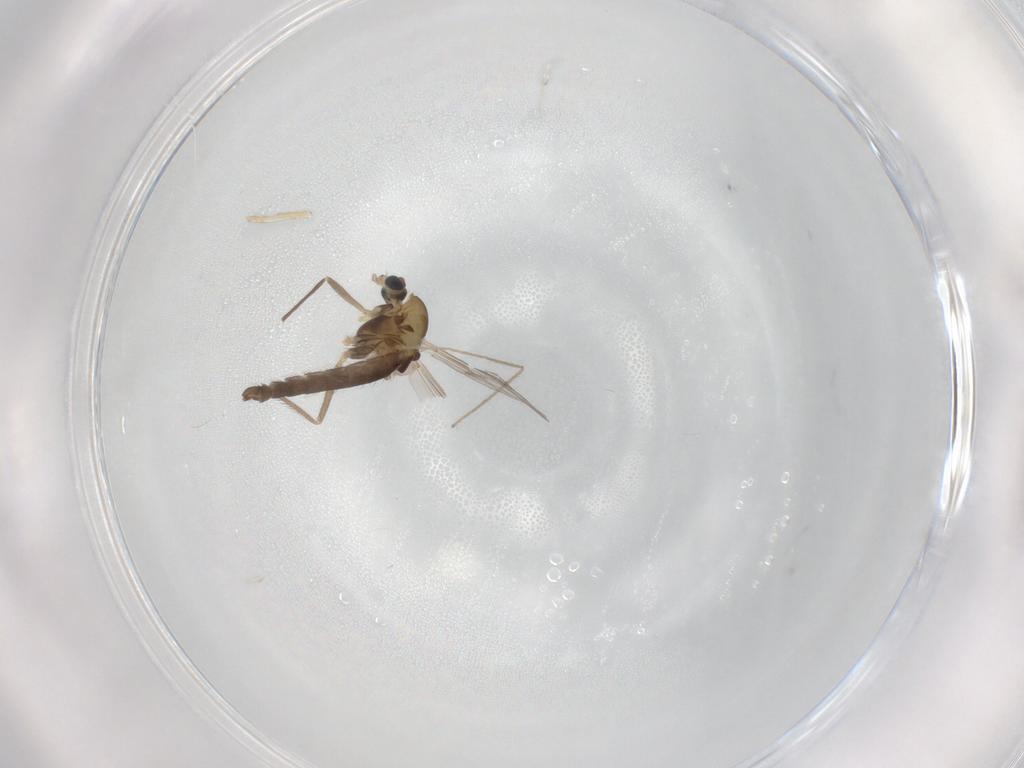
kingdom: Animalia
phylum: Arthropoda
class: Insecta
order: Diptera
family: Chironomidae
